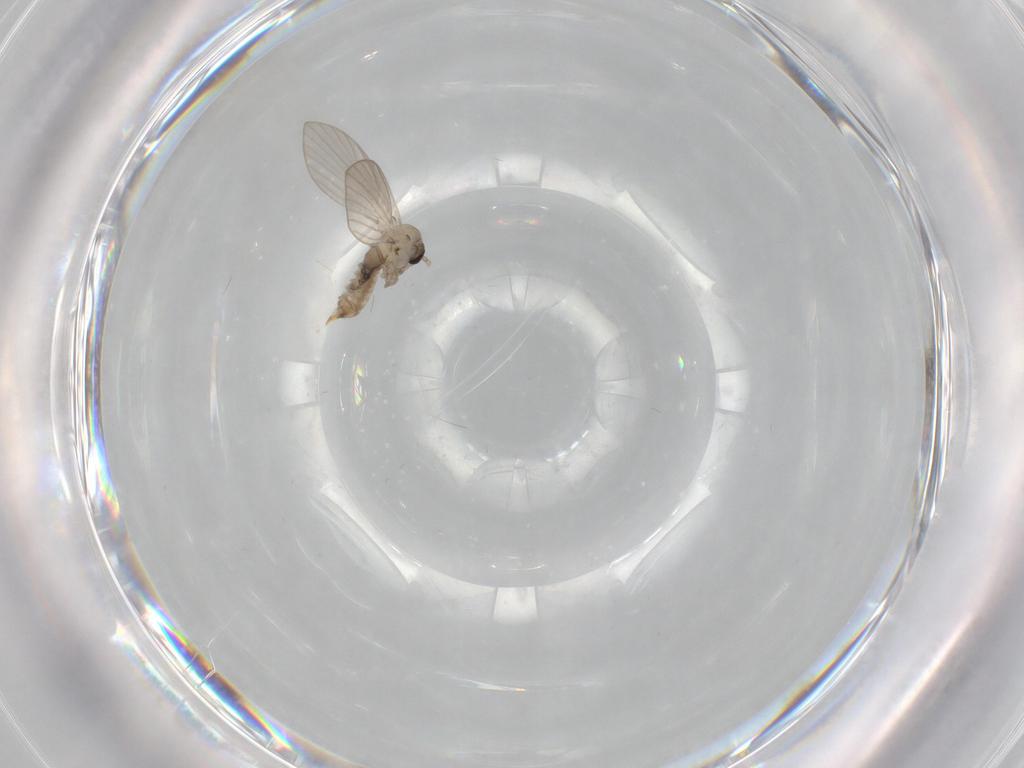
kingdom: Animalia
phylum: Arthropoda
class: Insecta
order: Diptera
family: Psychodidae
